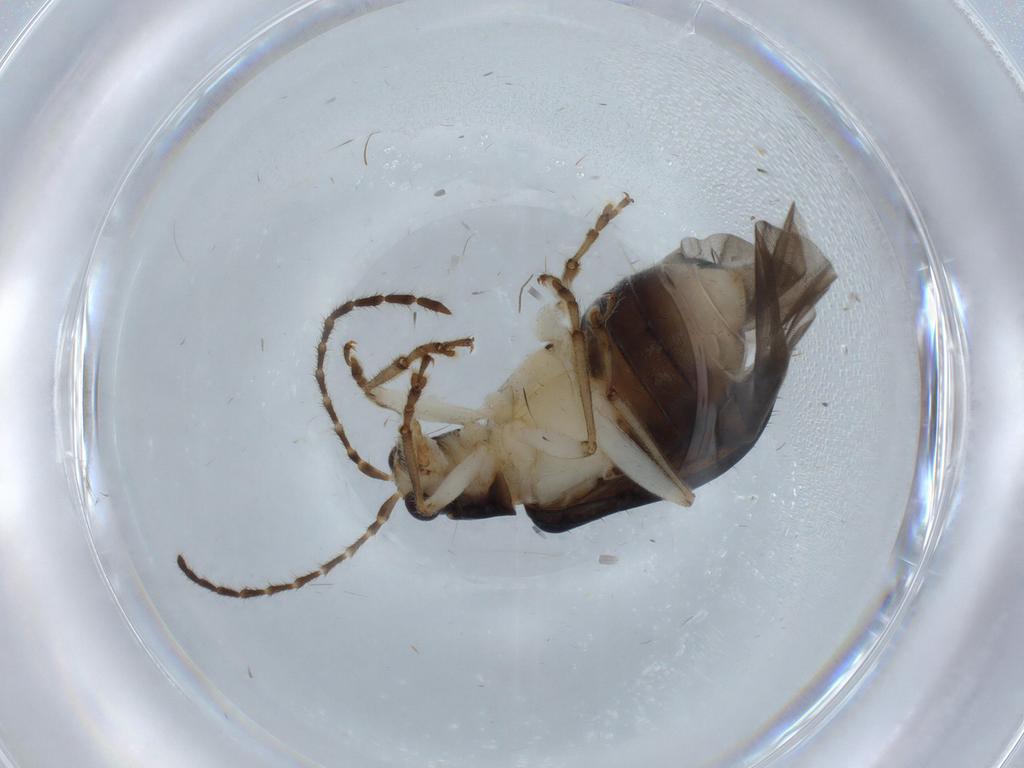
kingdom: Animalia
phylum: Arthropoda
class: Insecta
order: Coleoptera
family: Chrysomelidae
